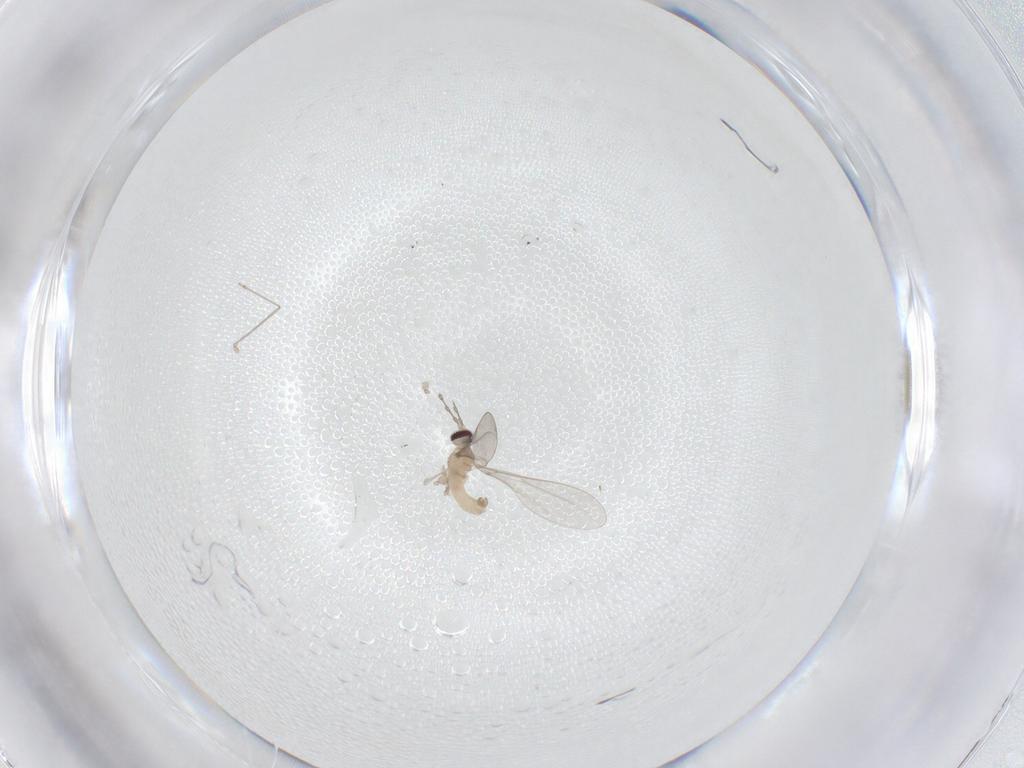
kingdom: Animalia
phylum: Arthropoda
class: Insecta
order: Diptera
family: Cecidomyiidae
